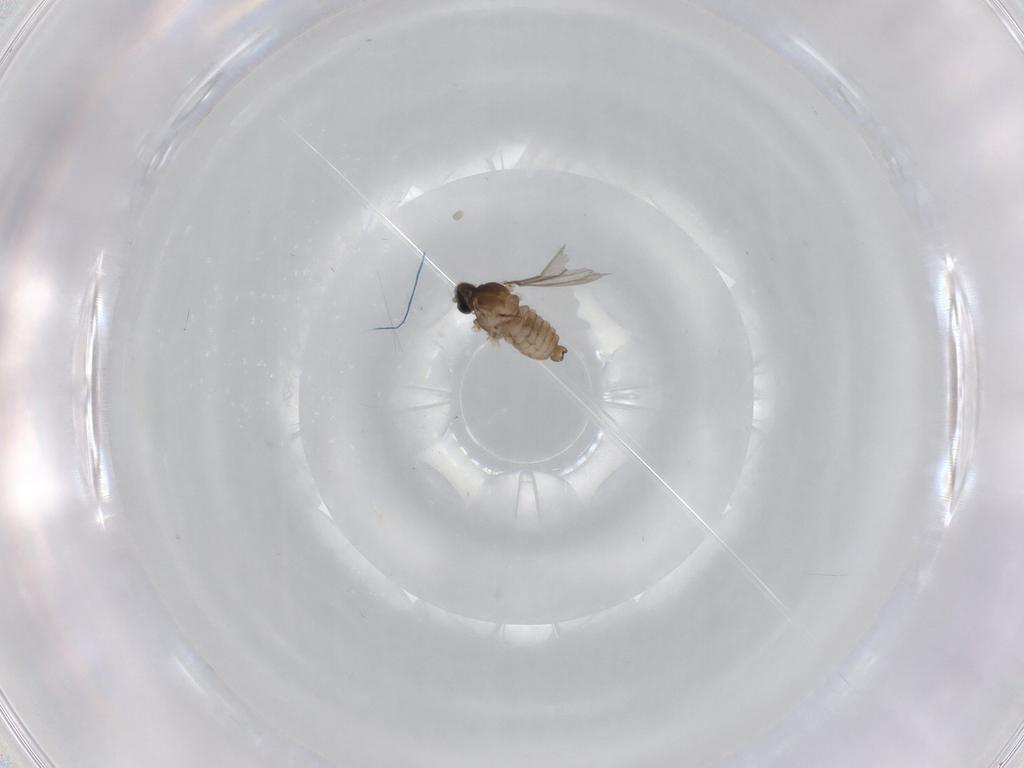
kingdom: Animalia
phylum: Arthropoda
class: Insecta
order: Diptera
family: Cecidomyiidae
